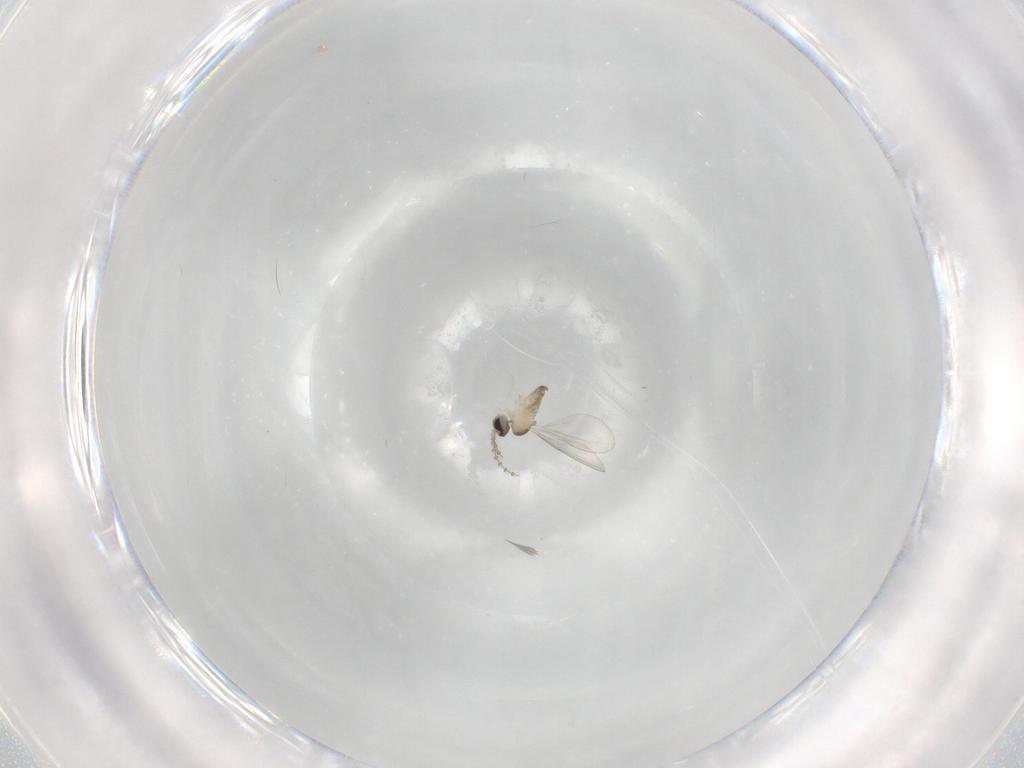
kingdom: Animalia
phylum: Arthropoda
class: Insecta
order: Diptera
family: Cecidomyiidae
